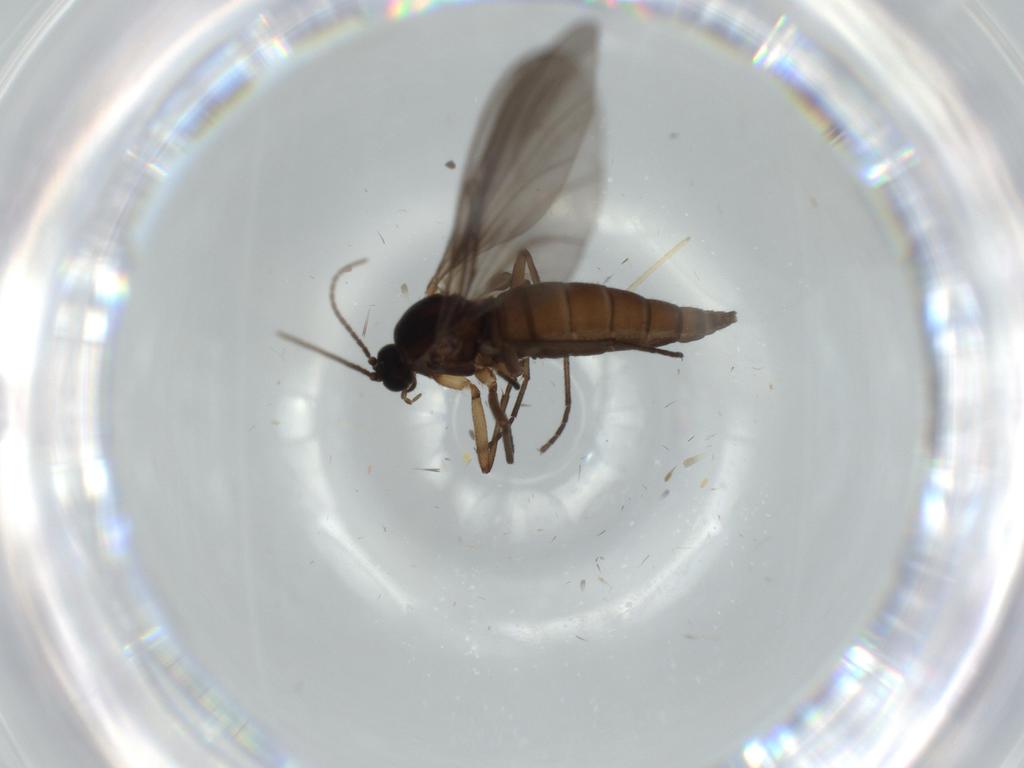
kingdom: Animalia
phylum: Arthropoda
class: Insecta
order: Diptera
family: Sciaridae
